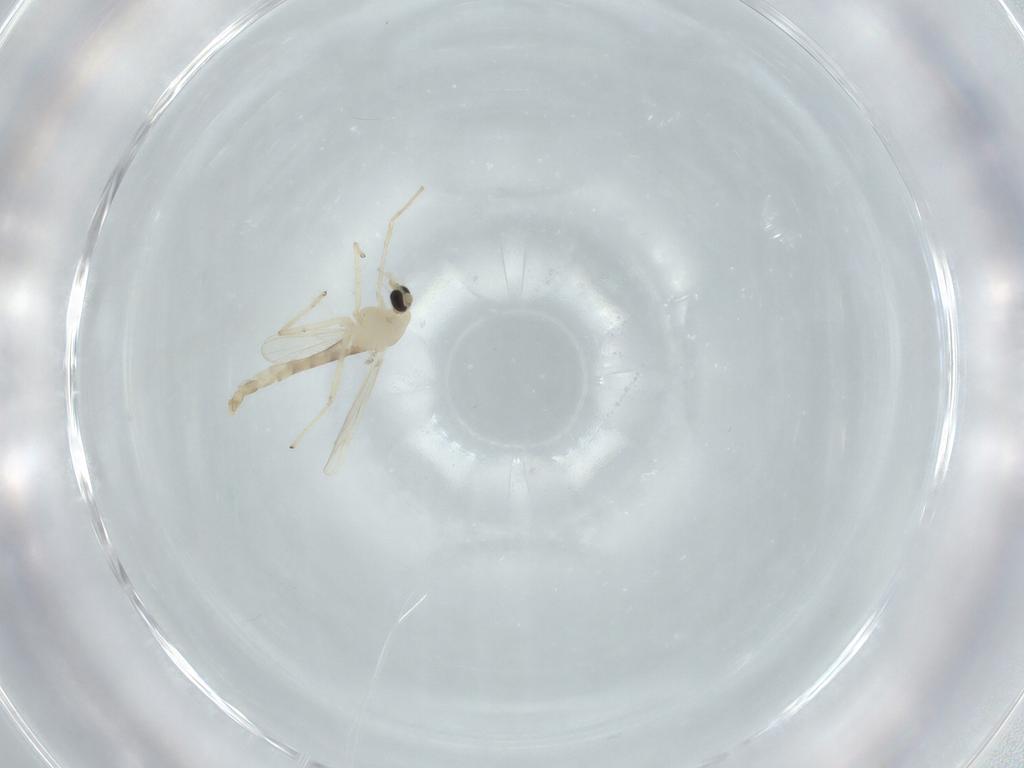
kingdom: Animalia
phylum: Arthropoda
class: Insecta
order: Diptera
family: Chironomidae
